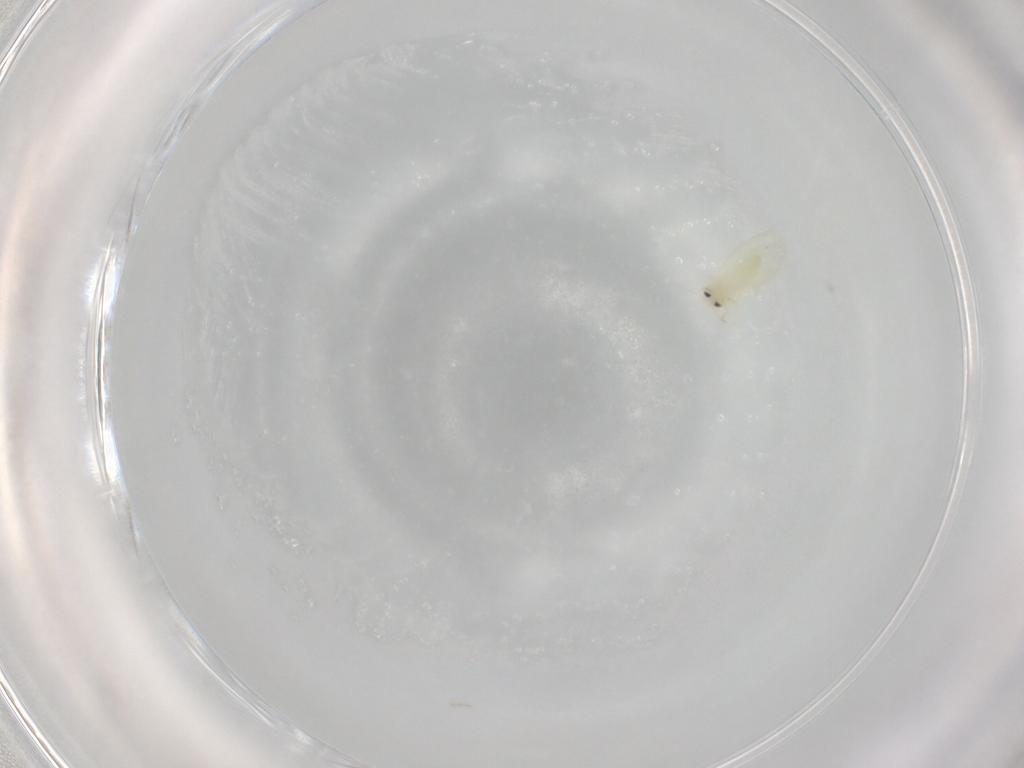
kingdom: Animalia
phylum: Arthropoda
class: Insecta
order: Hemiptera
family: Aleyrodidae
